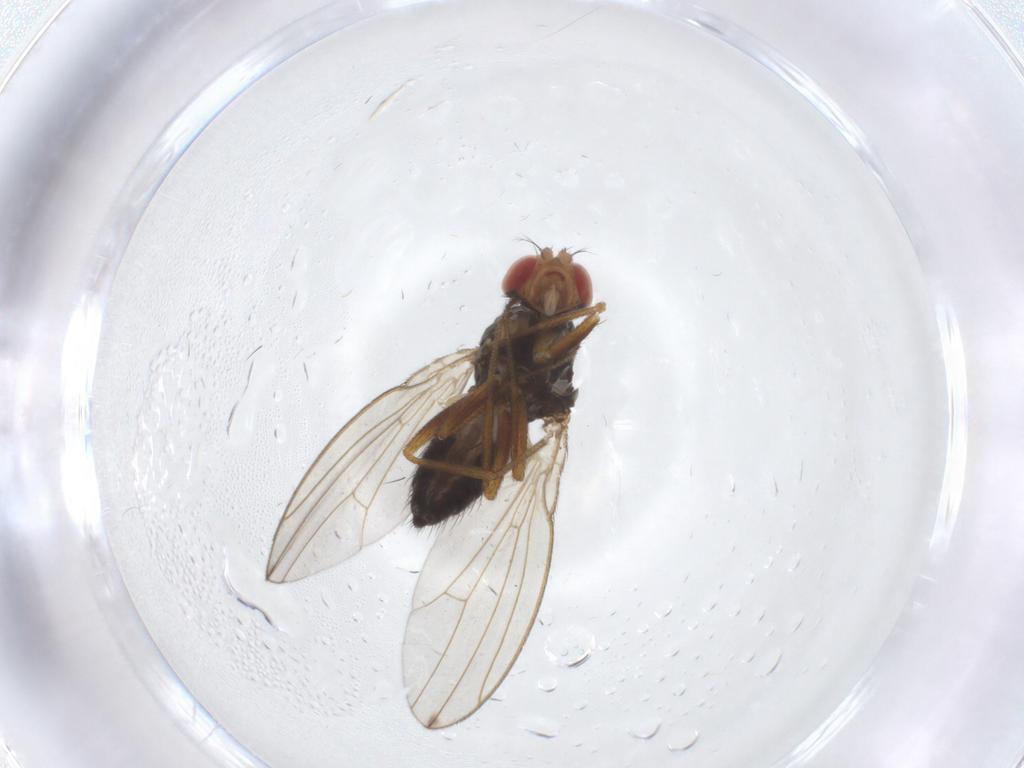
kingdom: Animalia
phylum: Arthropoda
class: Insecta
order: Diptera
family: Drosophilidae
